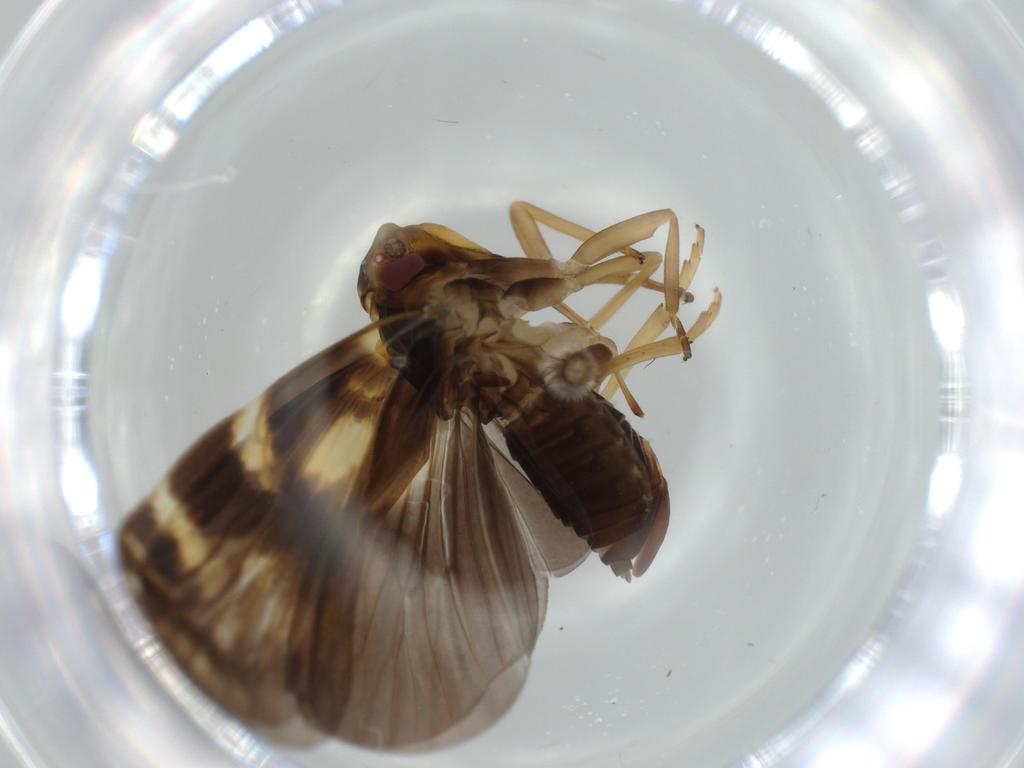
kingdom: Animalia
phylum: Arthropoda
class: Insecta
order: Hemiptera
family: Cixiidae
